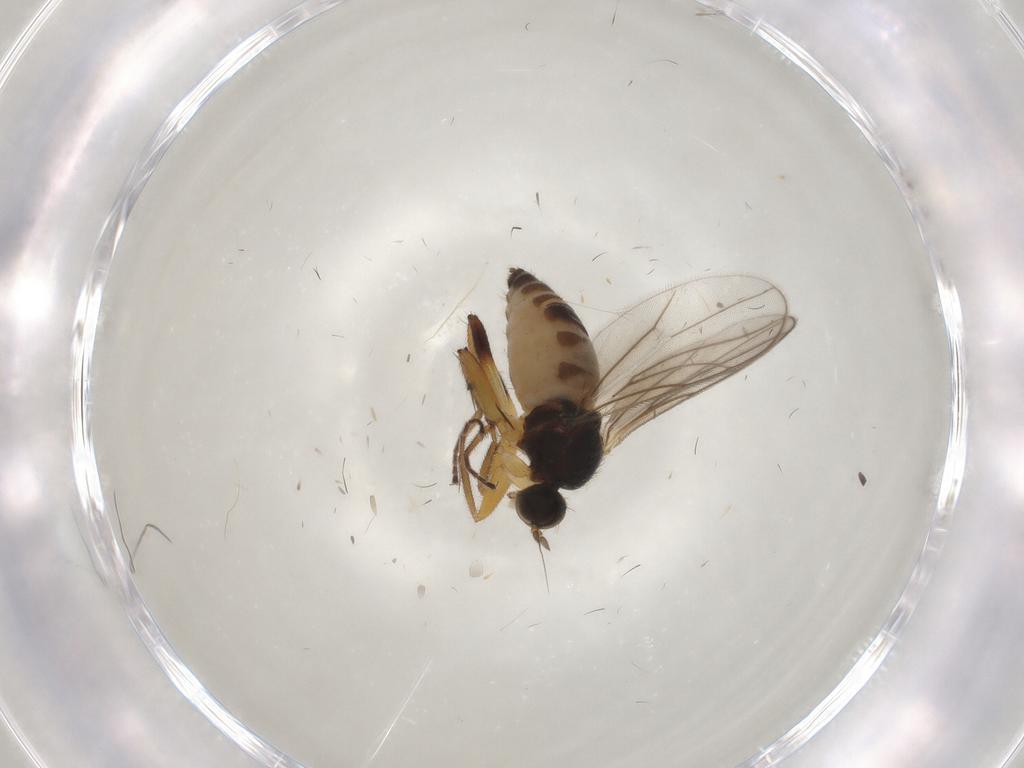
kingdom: Animalia
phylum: Arthropoda
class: Insecta
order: Diptera
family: Hybotidae
